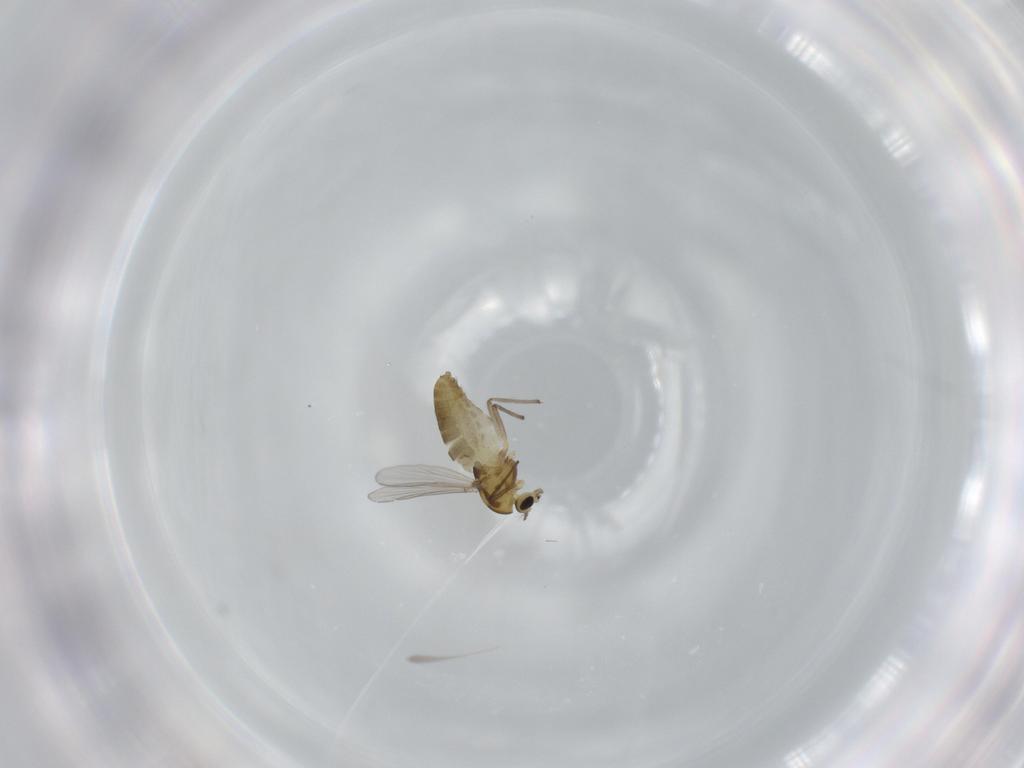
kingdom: Animalia
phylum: Arthropoda
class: Insecta
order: Diptera
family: Chironomidae
